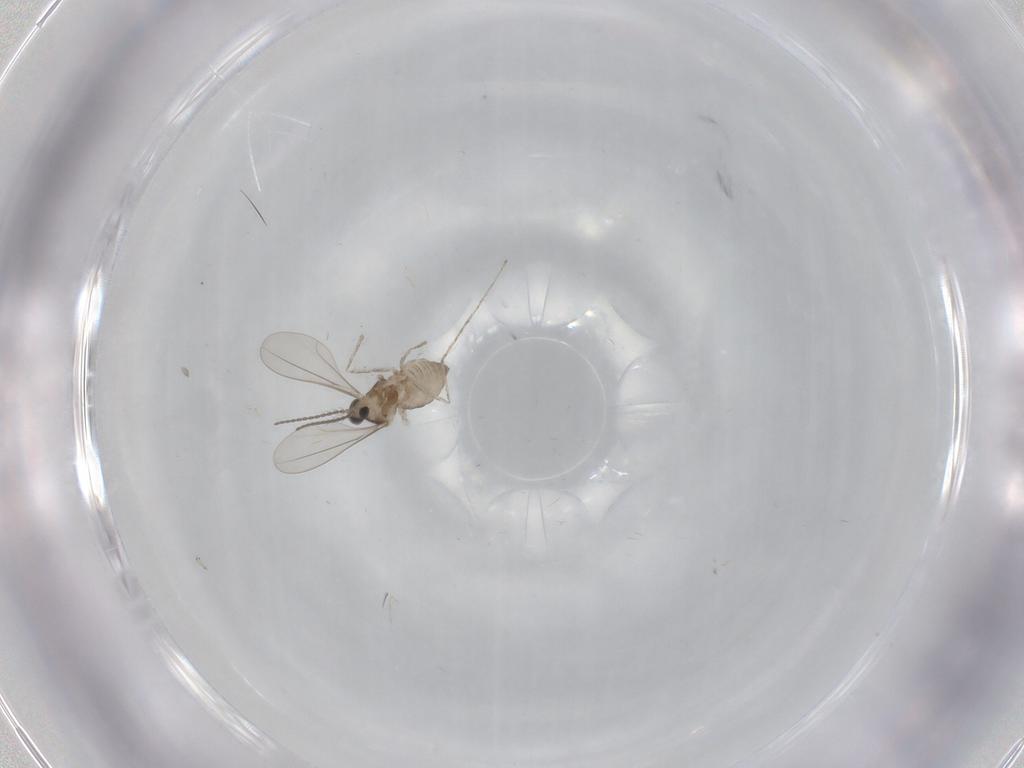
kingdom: Animalia
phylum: Arthropoda
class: Insecta
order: Diptera
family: Cecidomyiidae
